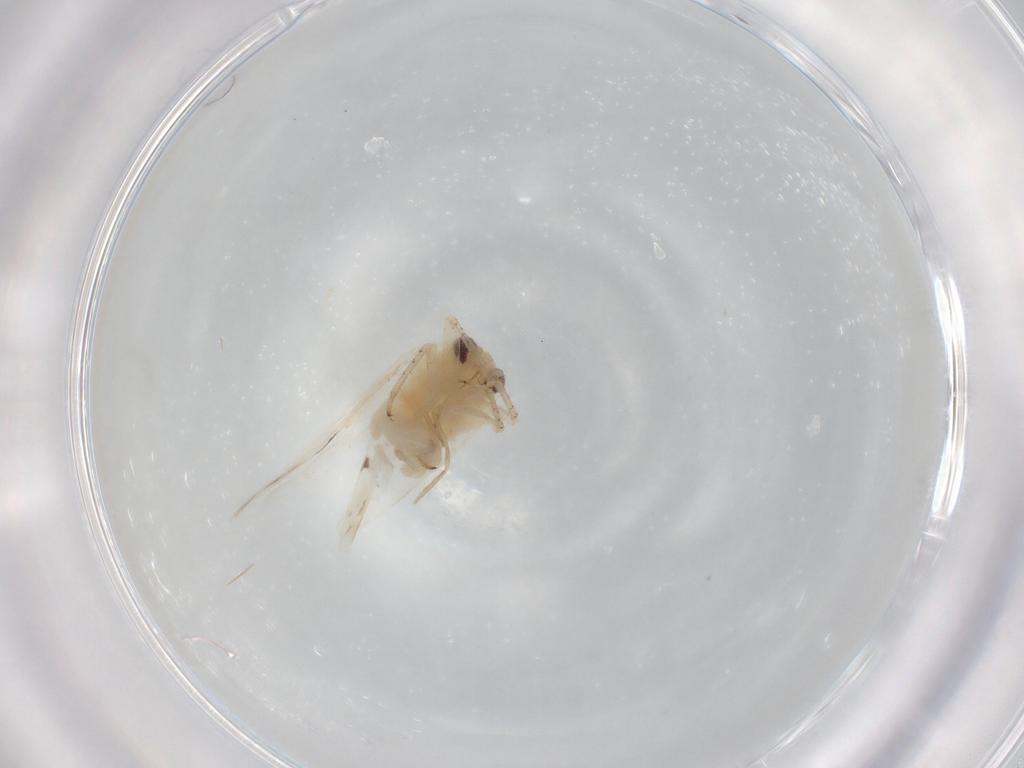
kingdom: Animalia
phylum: Arthropoda
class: Insecta
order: Hemiptera
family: Miridae
